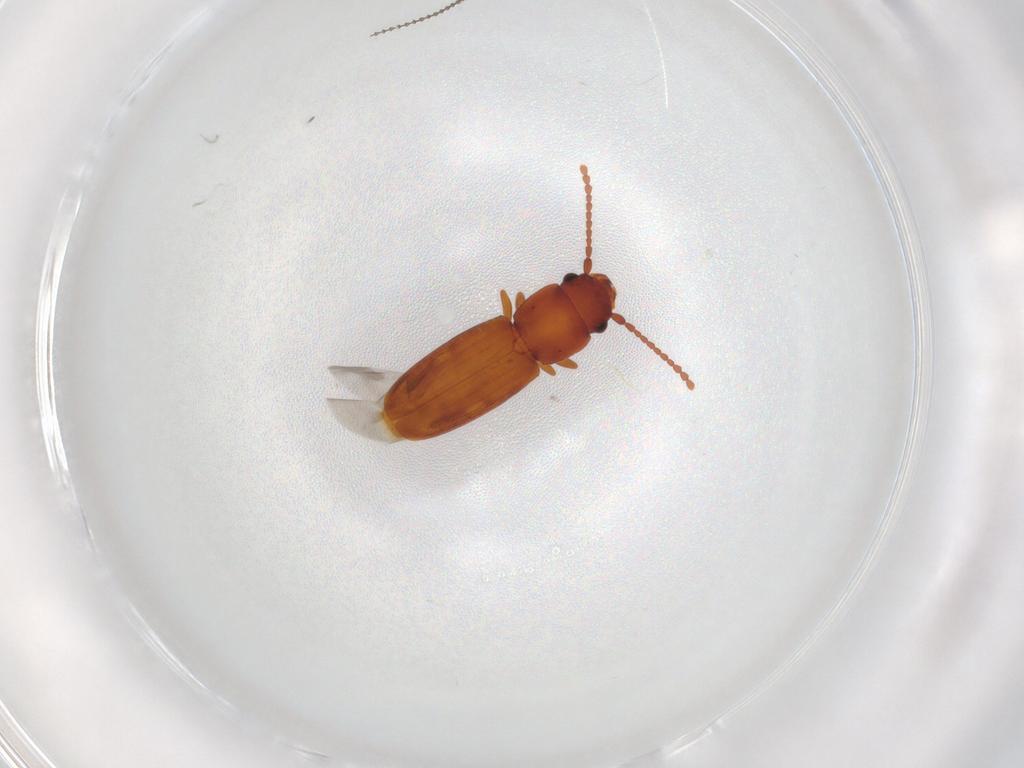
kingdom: Animalia
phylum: Arthropoda
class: Insecta
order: Coleoptera
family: Laemophloeidae
